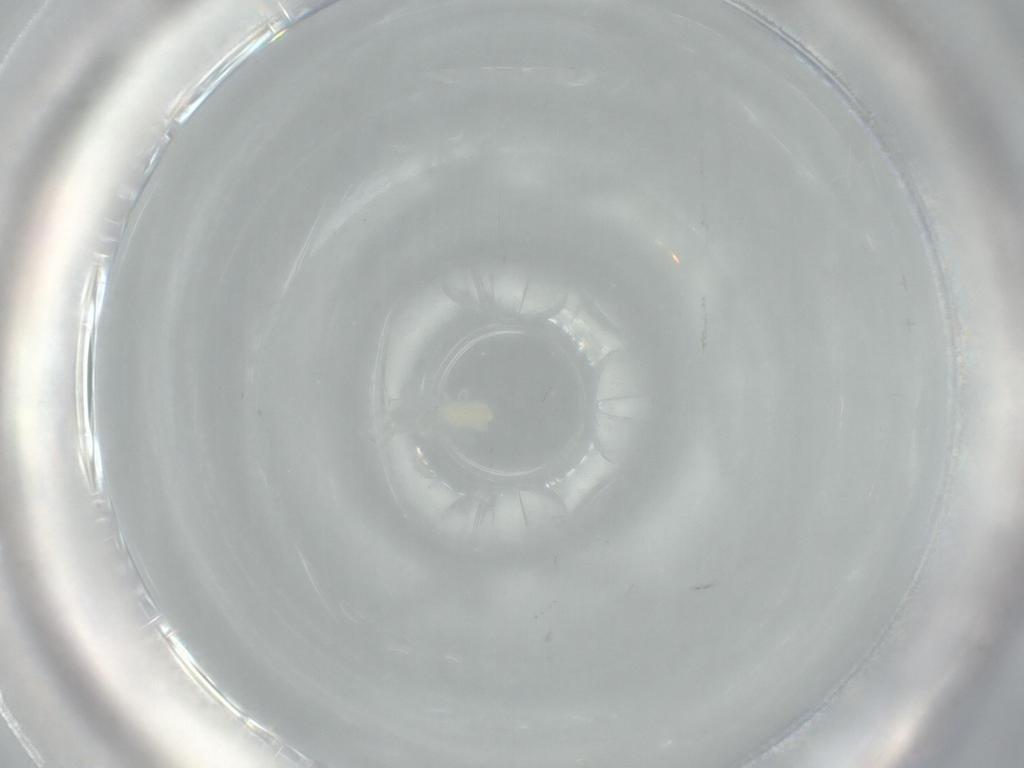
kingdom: Animalia
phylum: Arthropoda
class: Arachnida
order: Trombidiformes
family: Eupodidae
